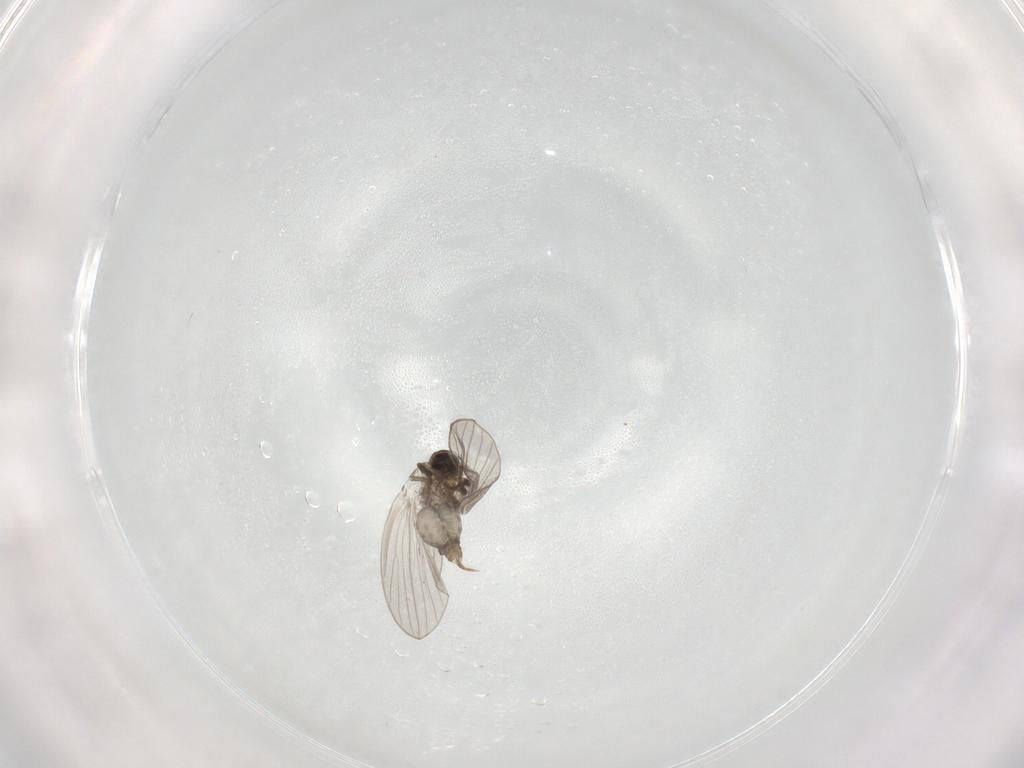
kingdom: Animalia
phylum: Arthropoda
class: Insecta
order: Diptera
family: Psychodidae
